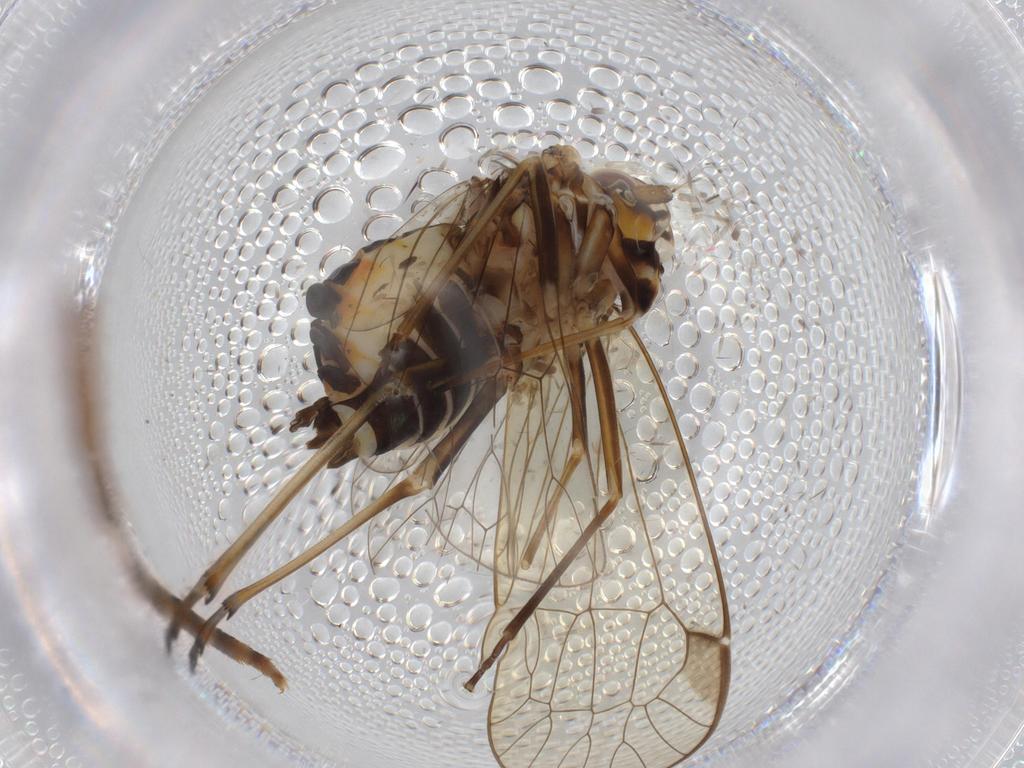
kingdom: Animalia
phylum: Arthropoda
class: Insecta
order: Hemiptera
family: Kinnaridae
